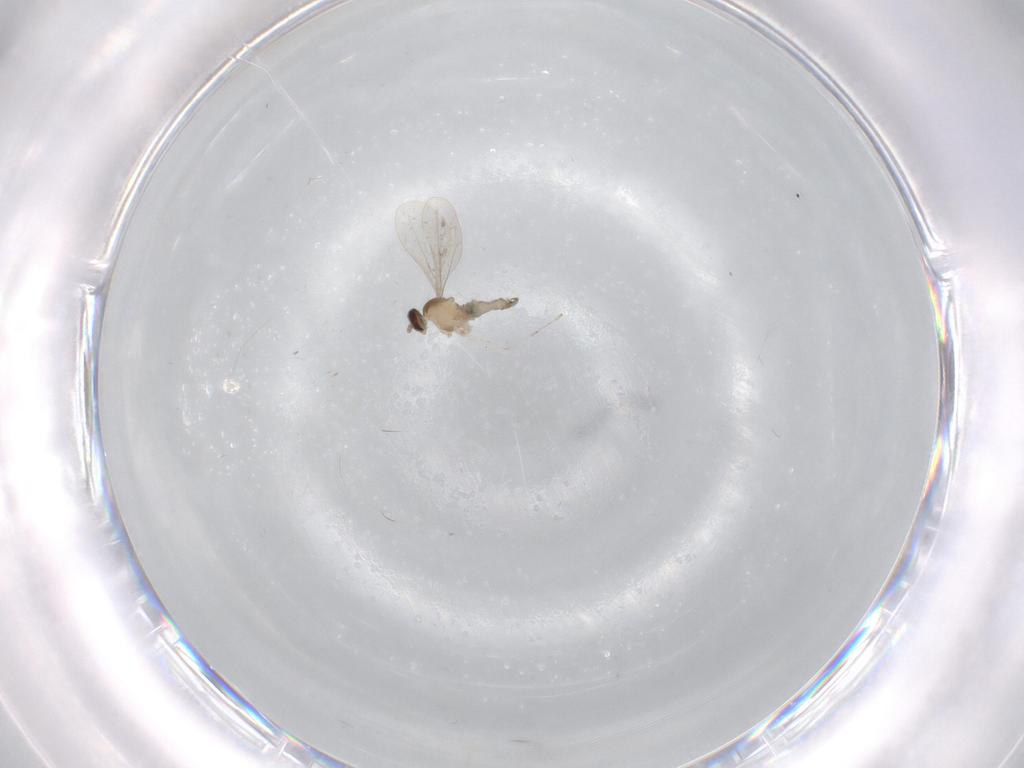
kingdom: Animalia
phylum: Arthropoda
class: Insecta
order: Diptera
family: Cecidomyiidae
